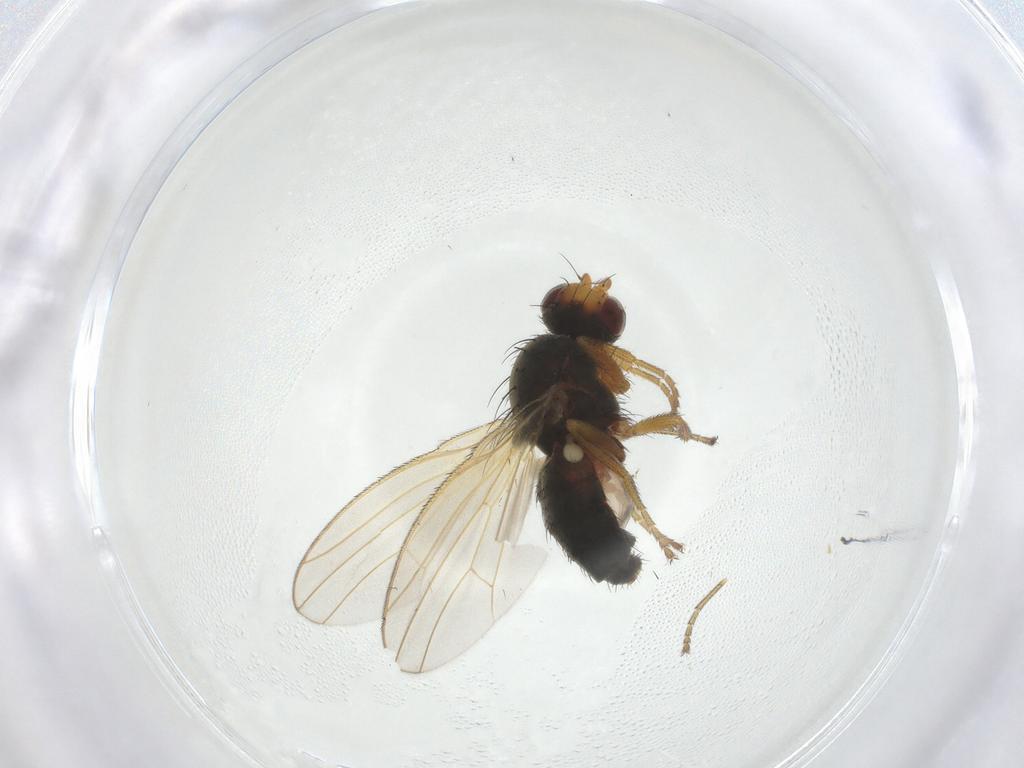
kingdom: Animalia
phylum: Arthropoda
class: Insecta
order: Diptera
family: Heleomyzidae
